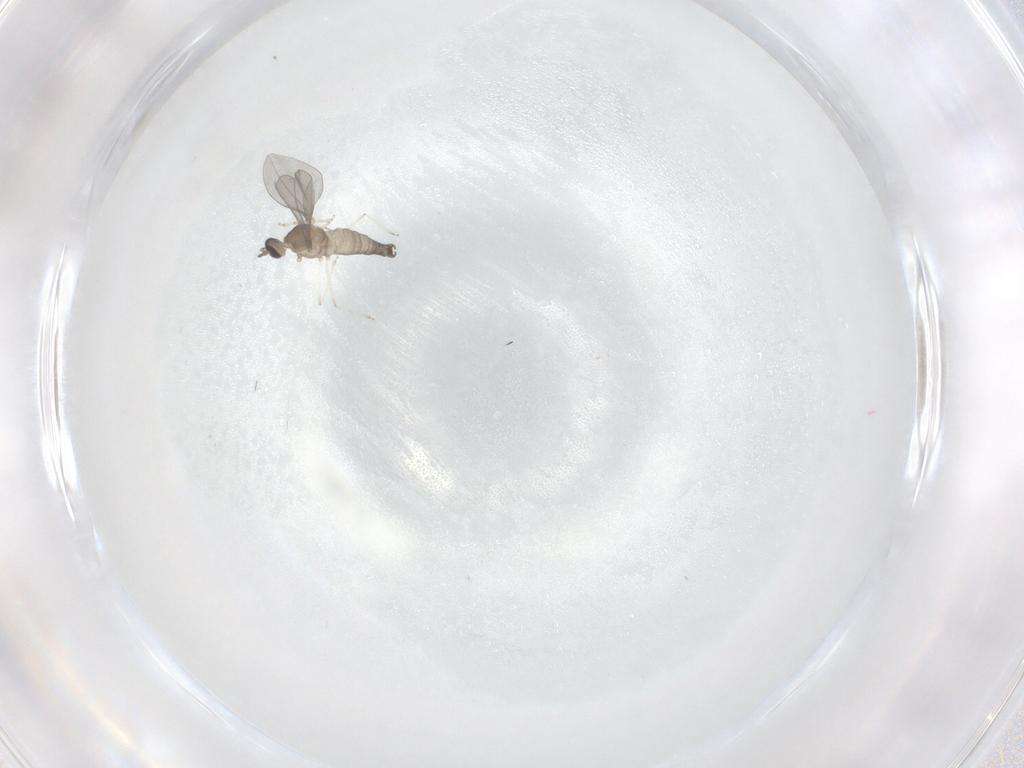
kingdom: Animalia
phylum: Arthropoda
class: Insecta
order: Diptera
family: Cecidomyiidae
